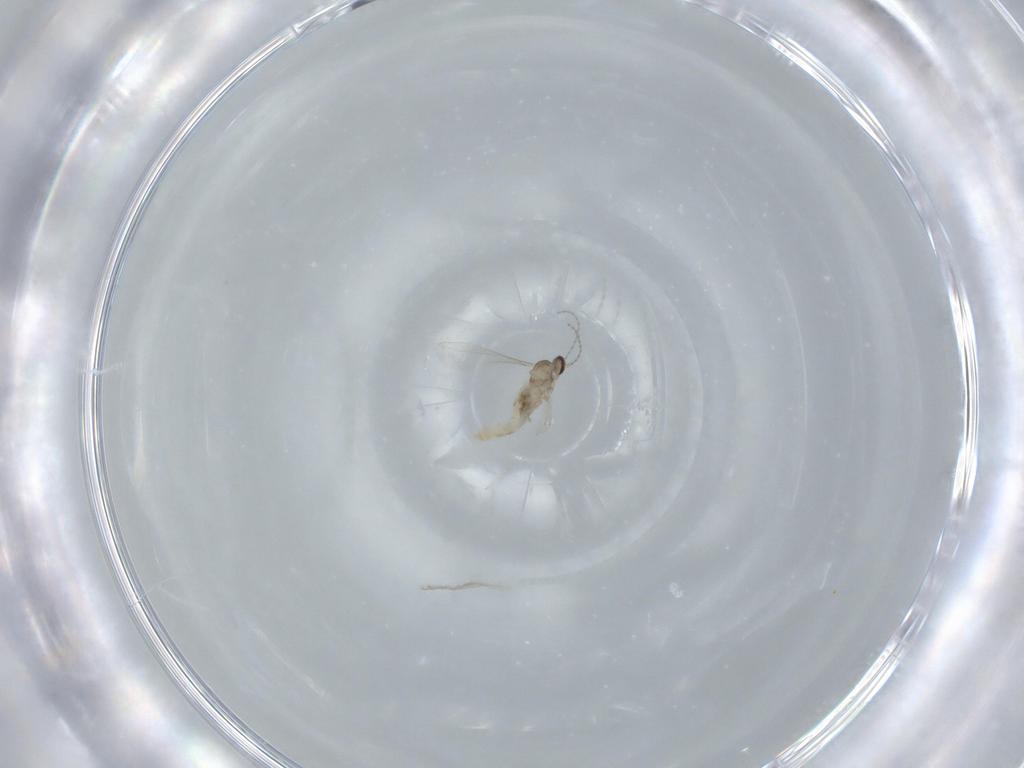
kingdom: Animalia
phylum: Arthropoda
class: Insecta
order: Diptera
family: Cecidomyiidae
